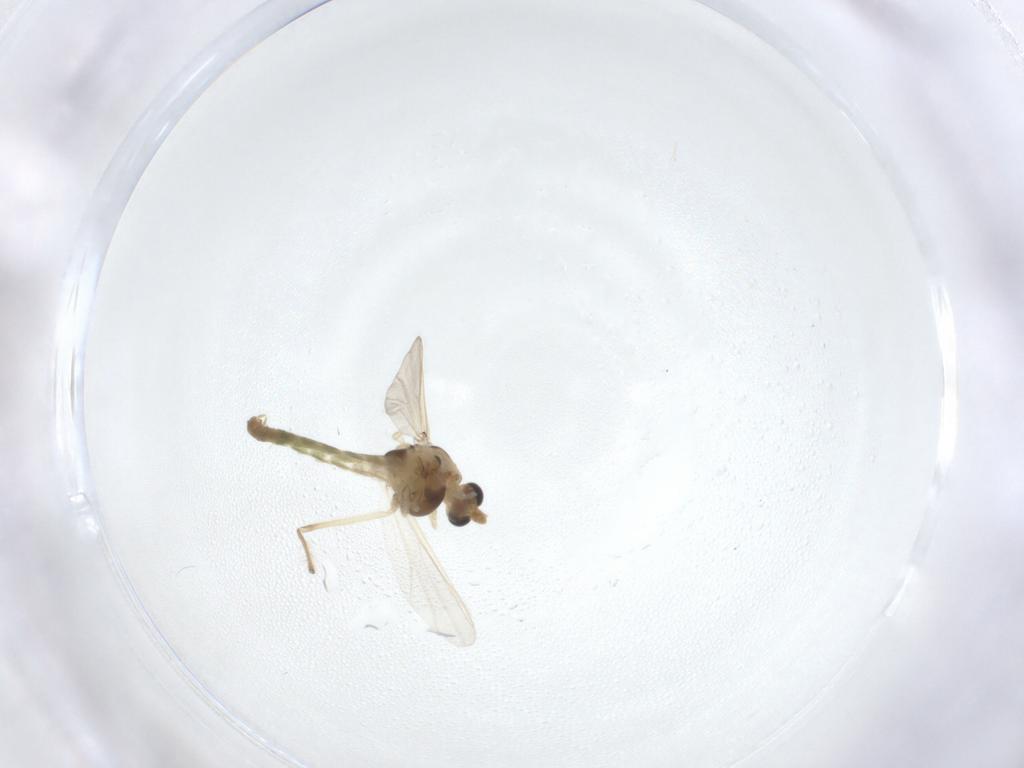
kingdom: Animalia
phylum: Arthropoda
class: Insecta
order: Diptera
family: Chironomidae
